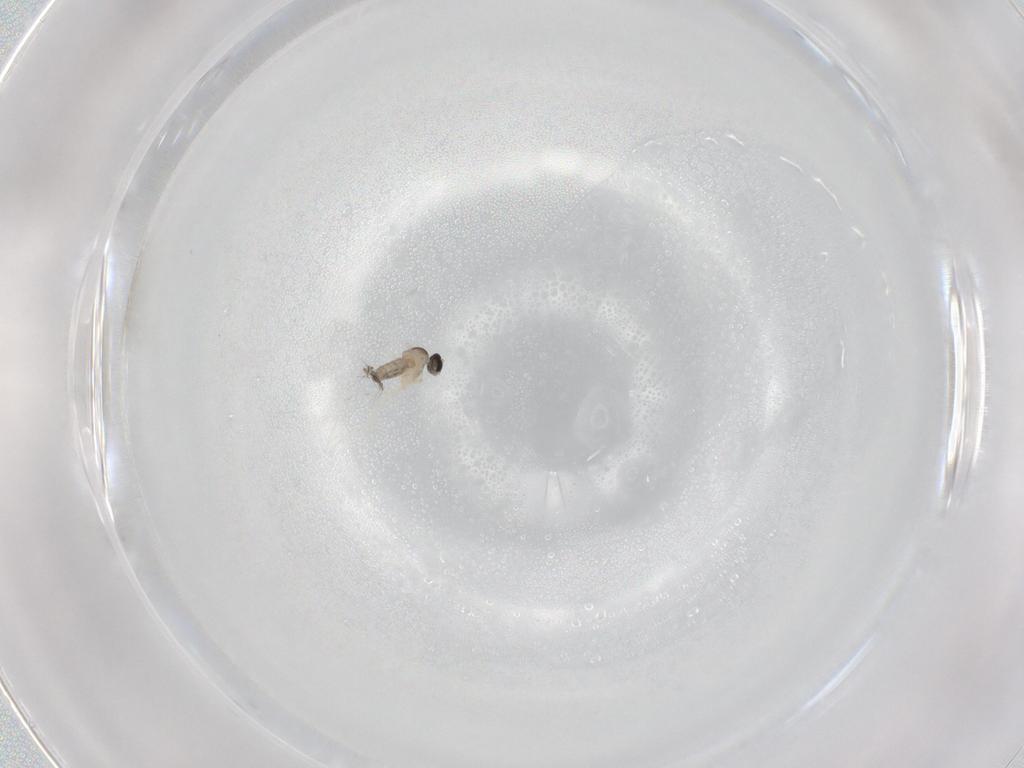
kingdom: Animalia
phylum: Arthropoda
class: Insecta
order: Diptera
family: Cecidomyiidae
